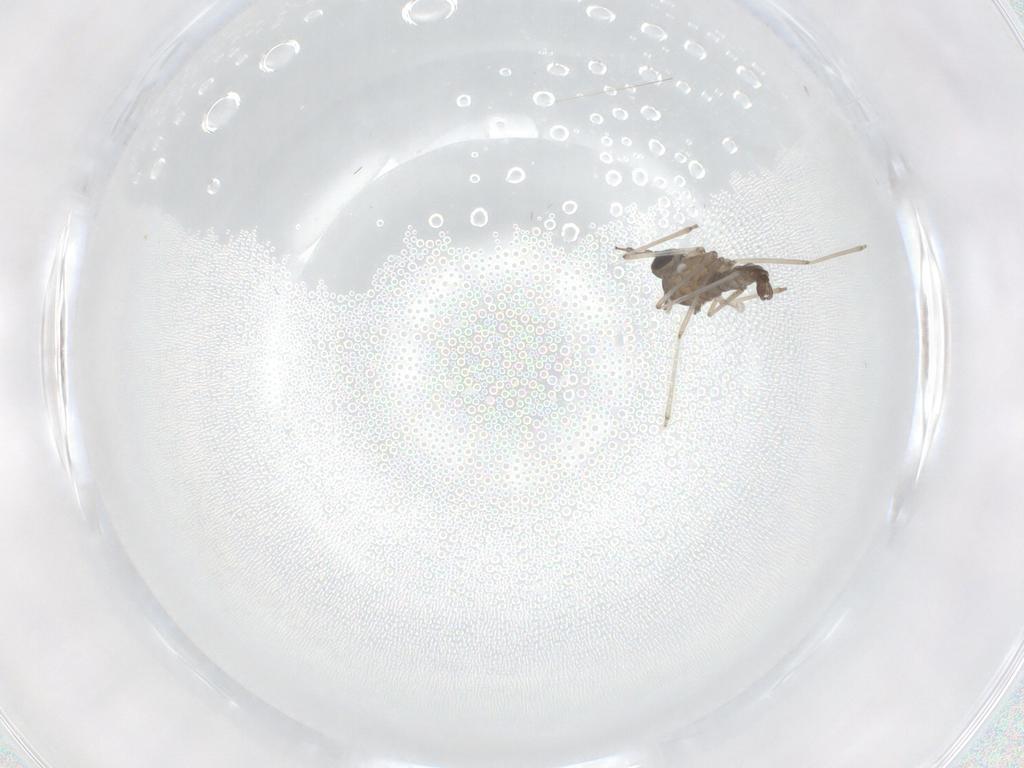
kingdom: Animalia
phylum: Arthropoda
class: Insecta
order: Diptera
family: Cecidomyiidae
